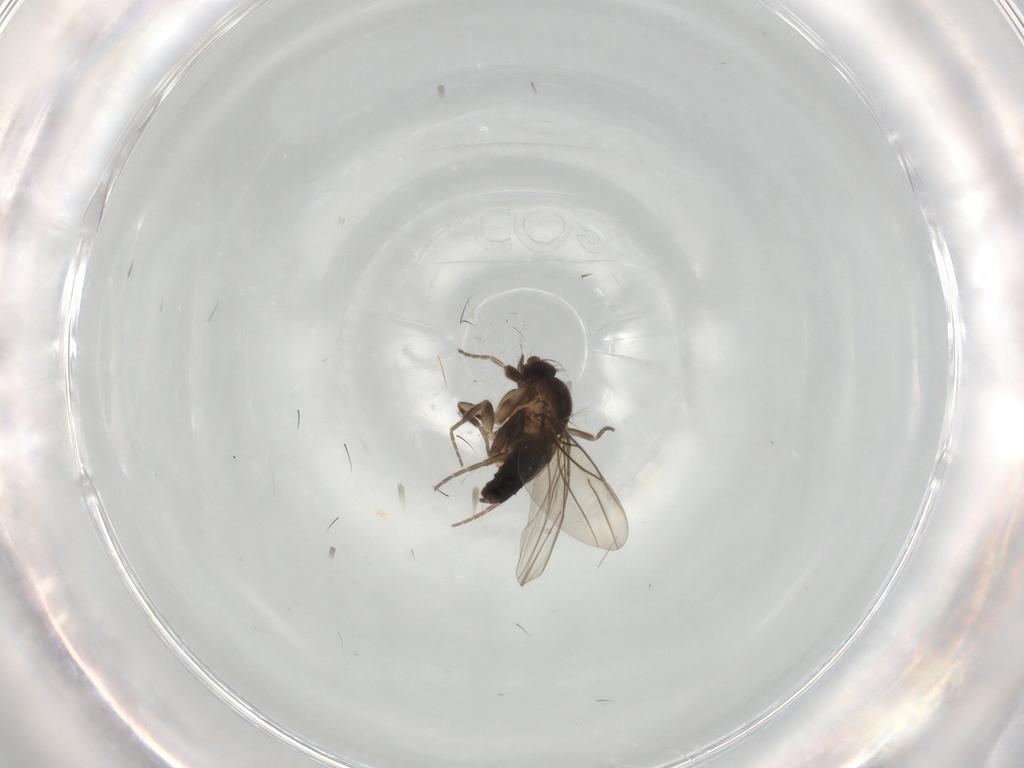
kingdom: Animalia
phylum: Arthropoda
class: Insecta
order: Diptera
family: Phoridae
